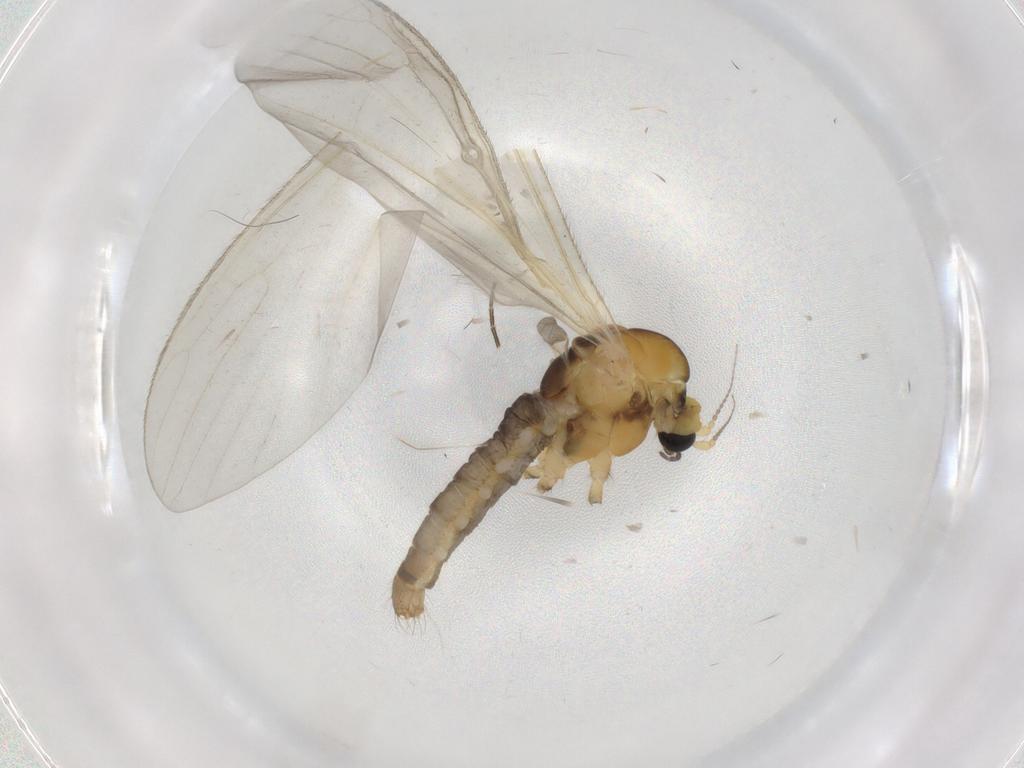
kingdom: Animalia
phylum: Arthropoda
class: Insecta
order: Diptera
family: Limoniidae
